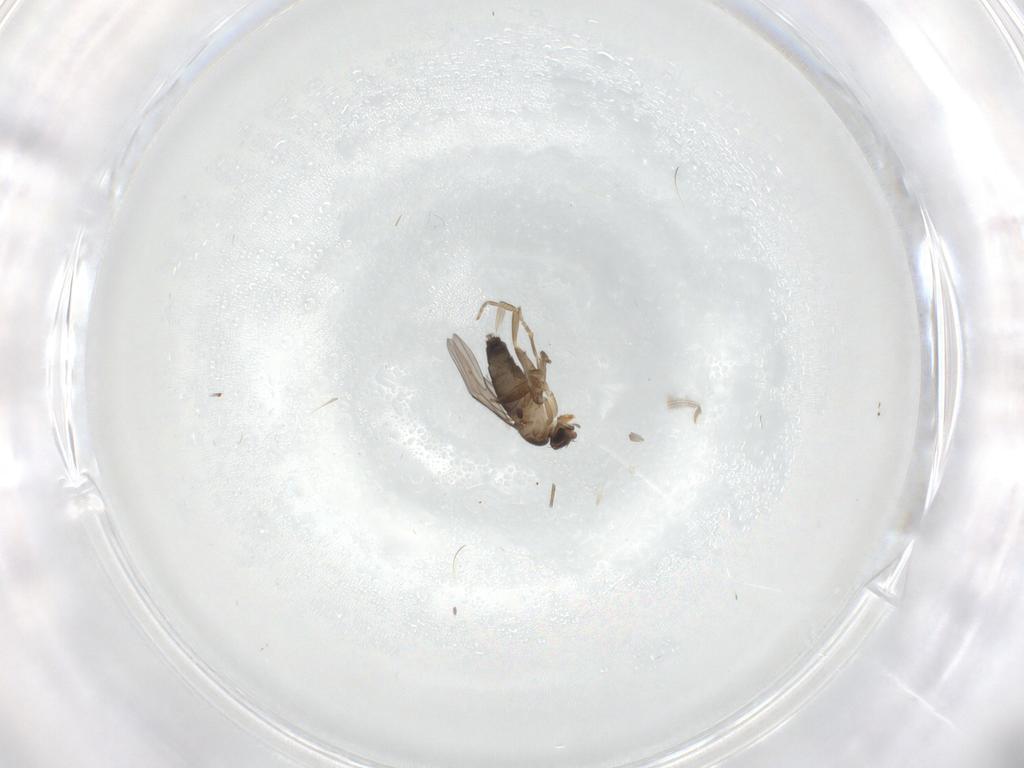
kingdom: Animalia
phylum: Arthropoda
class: Insecta
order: Diptera
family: Phoridae
